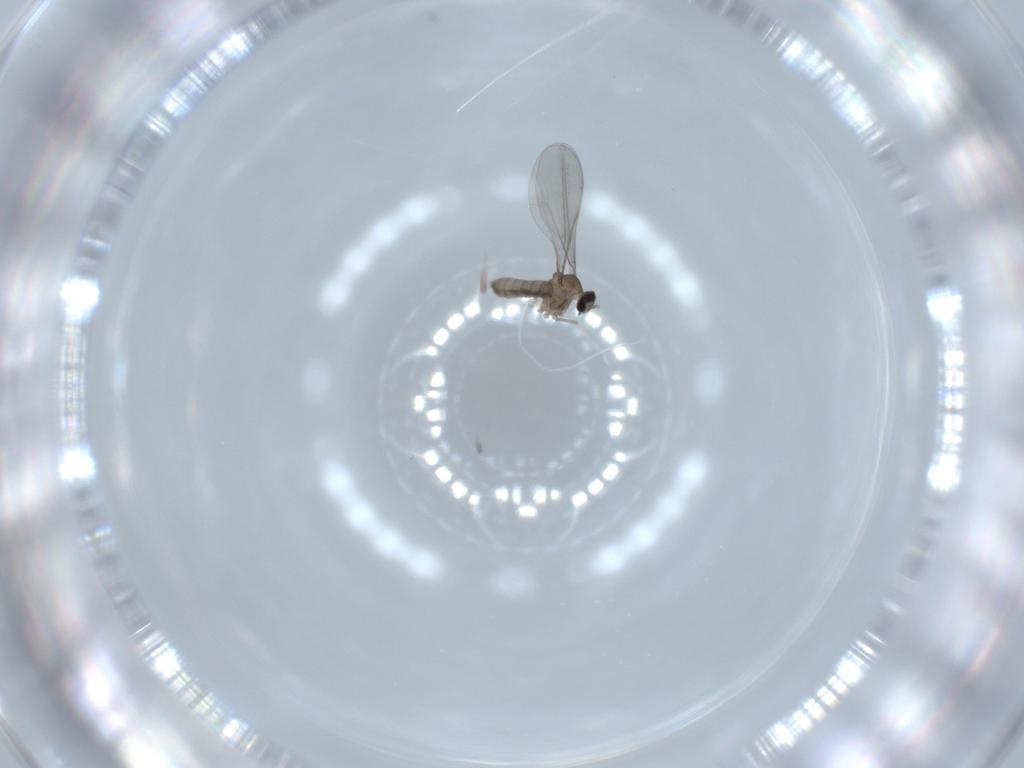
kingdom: Animalia
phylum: Arthropoda
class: Insecta
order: Diptera
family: Cecidomyiidae
